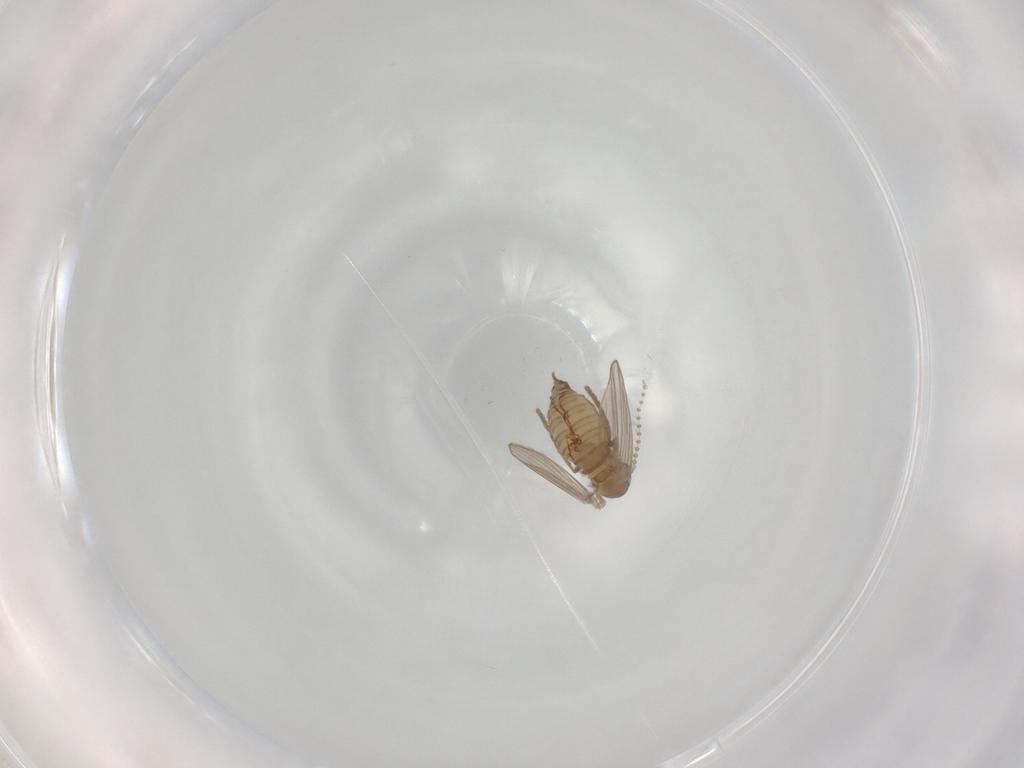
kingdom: Animalia
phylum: Arthropoda
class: Insecta
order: Diptera
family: Psychodidae
